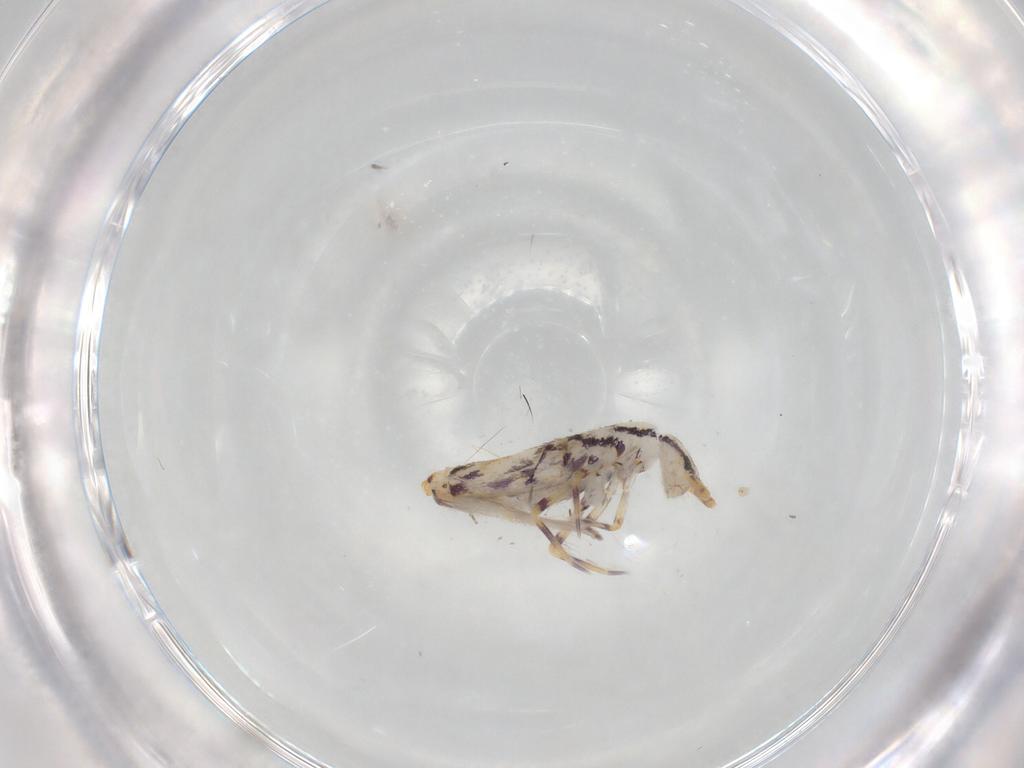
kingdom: Animalia
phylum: Arthropoda
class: Collembola
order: Entomobryomorpha
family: Entomobryidae
